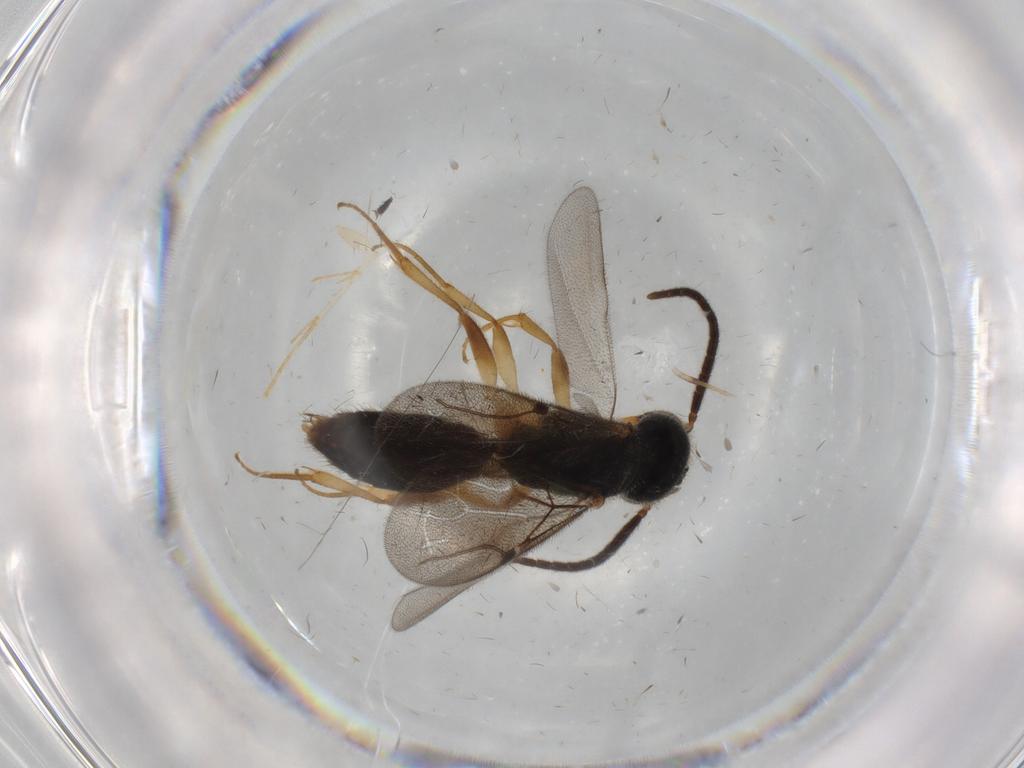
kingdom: Animalia
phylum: Arthropoda
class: Insecta
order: Hymenoptera
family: Bethylidae
